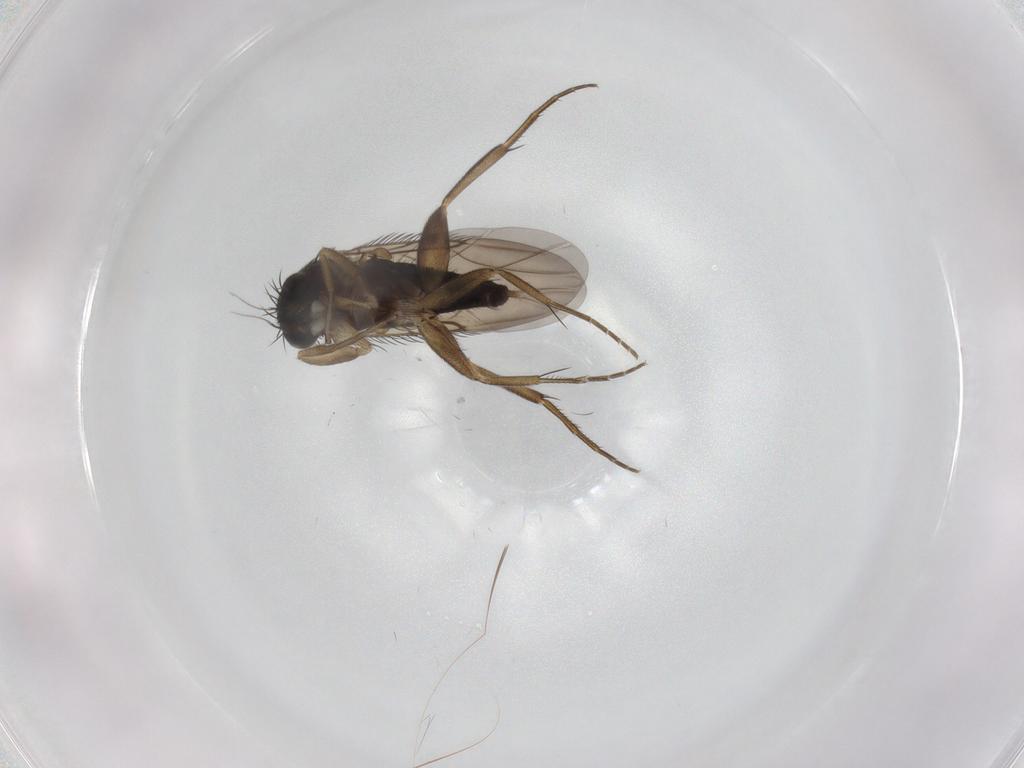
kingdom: Animalia
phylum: Arthropoda
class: Insecta
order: Diptera
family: Phoridae
